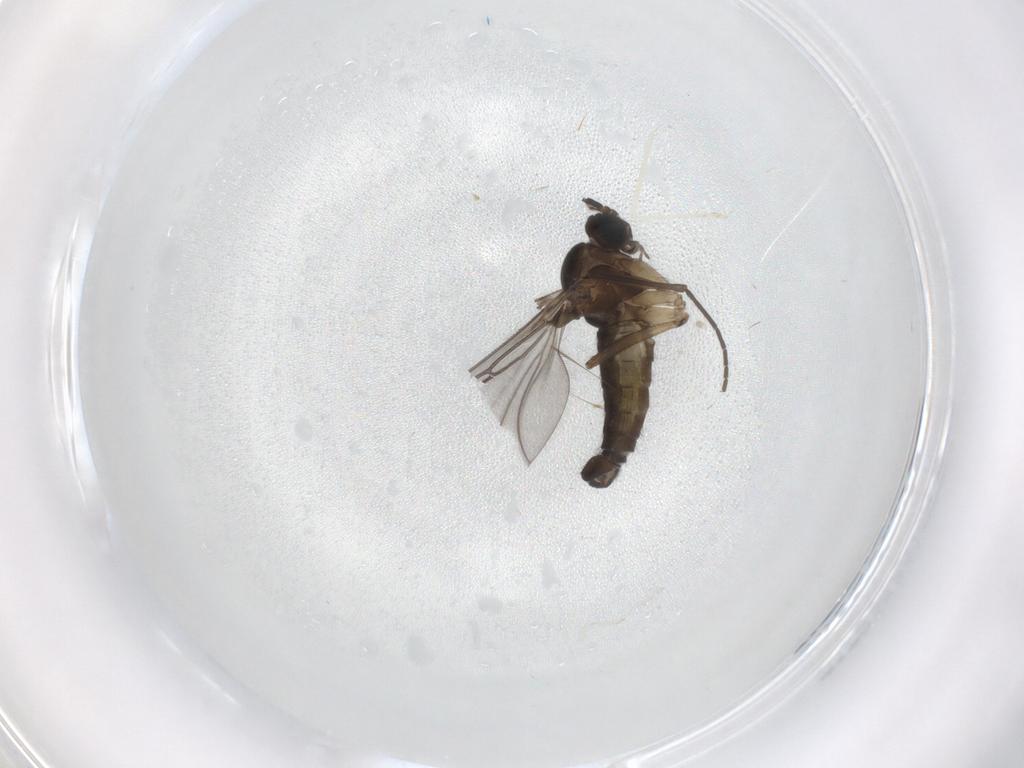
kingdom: Animalia
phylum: Arthropoda
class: Insecta
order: Diptera
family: Sciaridae
